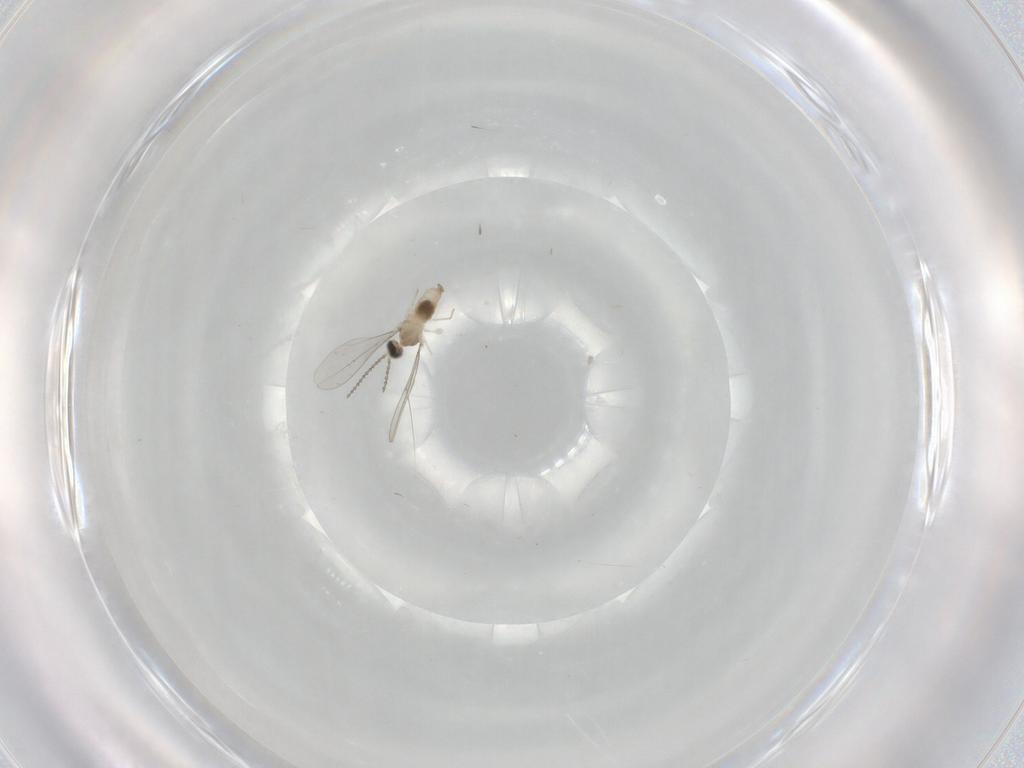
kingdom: Animalia
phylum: Arthropoda
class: Insecta
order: Diptera
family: Cecidomyiidae
